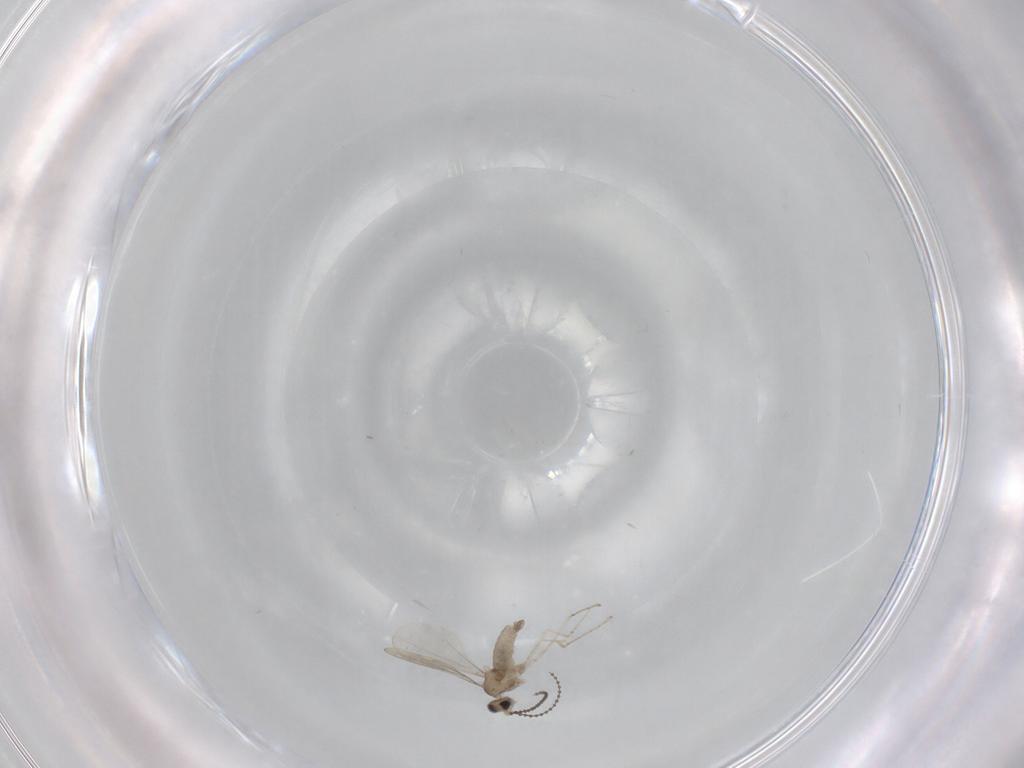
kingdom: Animalia
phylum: Arthropoda
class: Insecta
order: Diptera
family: Cecidomyiidae
